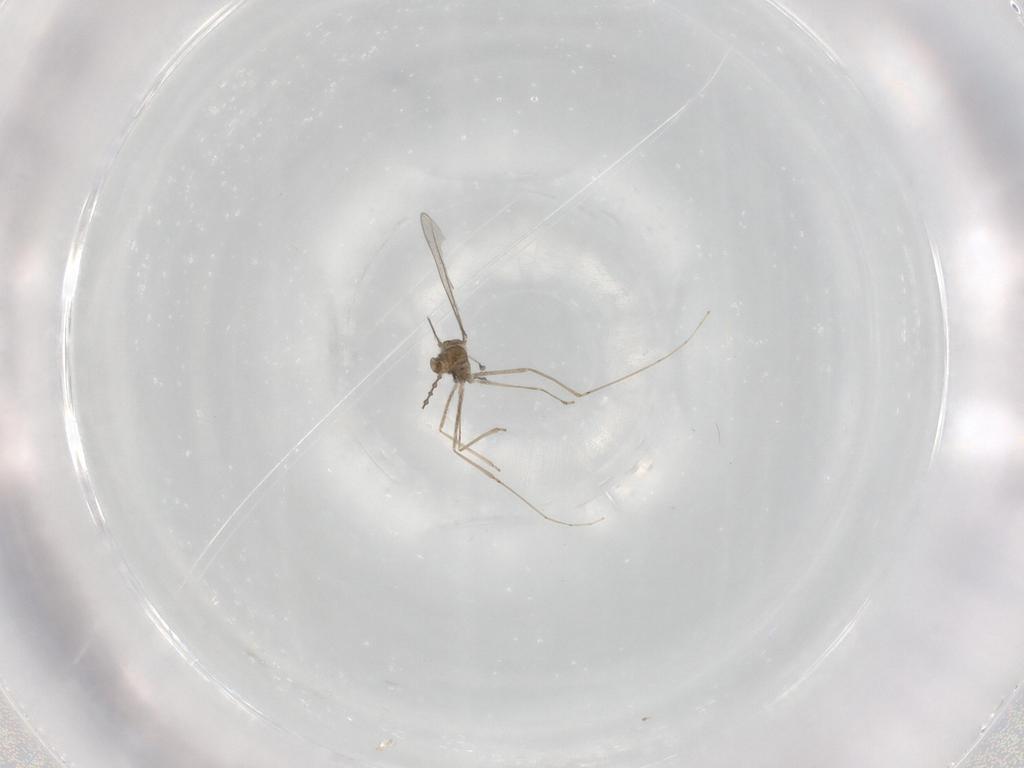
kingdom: Animalia
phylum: Arthropoda
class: Insecta
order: Diptera
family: Cecidomyiidae
